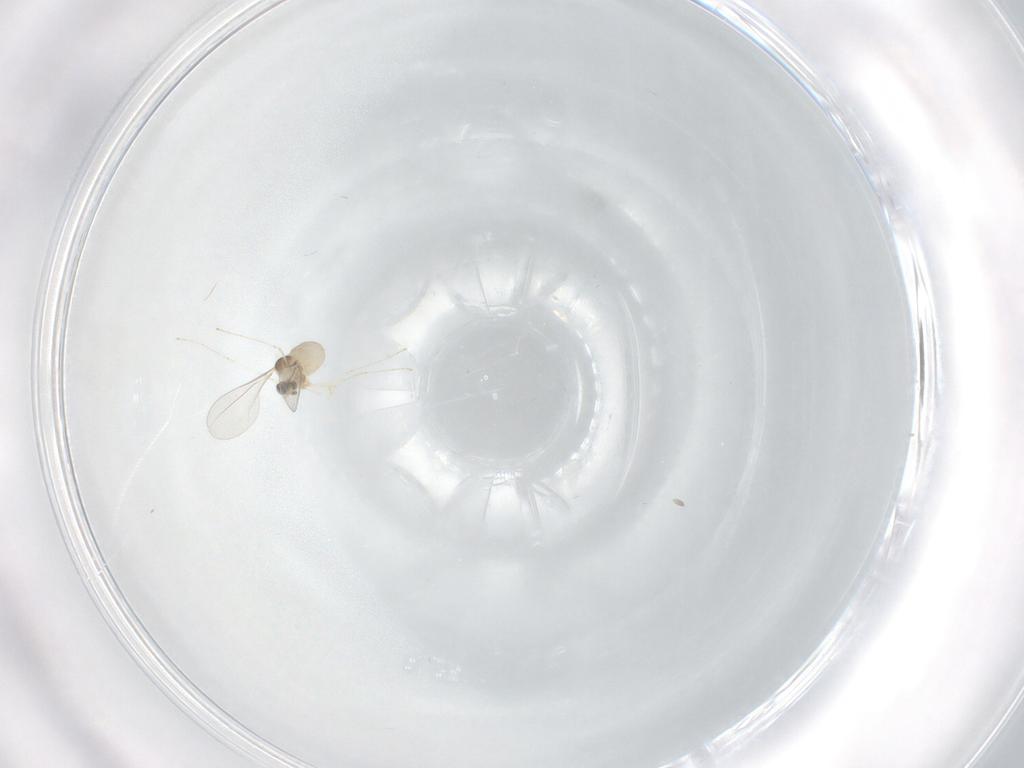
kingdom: Animalia
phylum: Arthropoda
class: Insecta
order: Diptera
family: Cecidomyiidae
